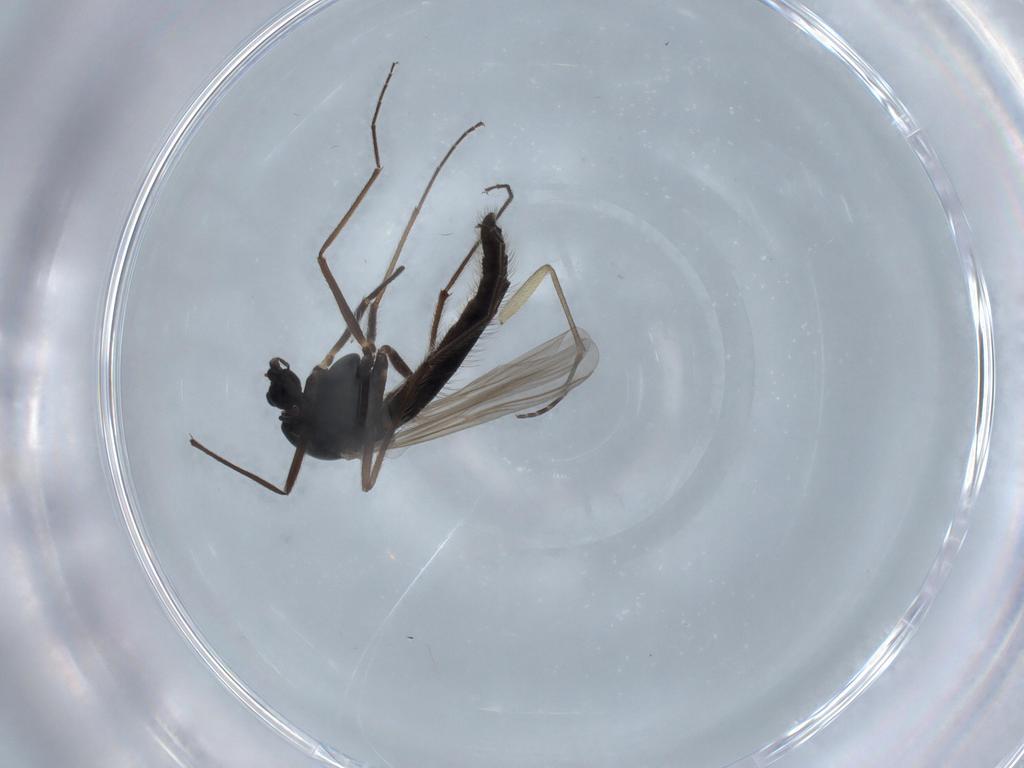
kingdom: Animalia
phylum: Arthropoda
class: Insecta
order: Diptera
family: Chironomidae
